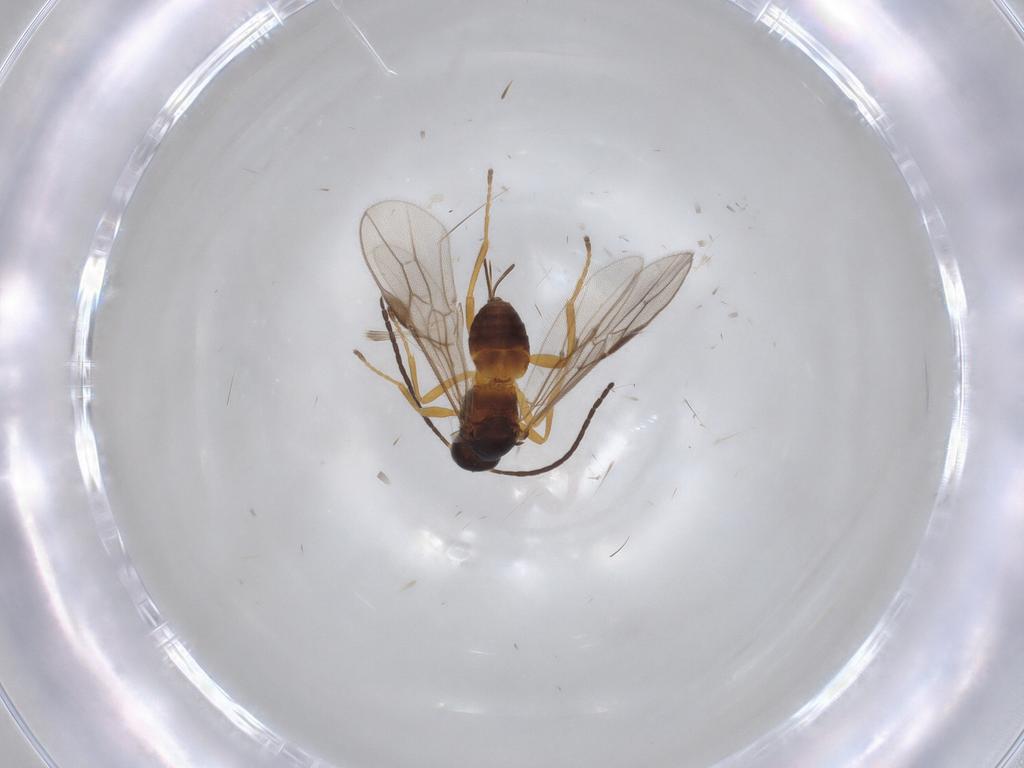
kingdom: Animalia
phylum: Arthropoda
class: Insecta
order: Hymenoptera
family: Braconidae
